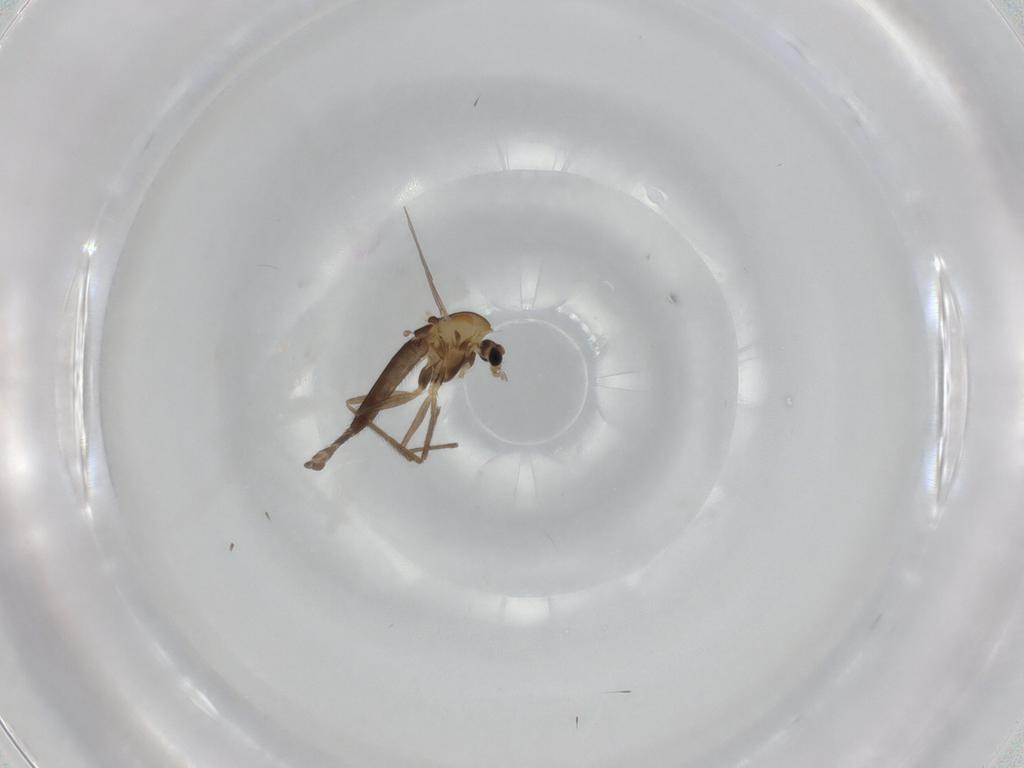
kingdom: Animalia
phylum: Arthropoda
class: Insecta
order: Diptera
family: Chironomidae
